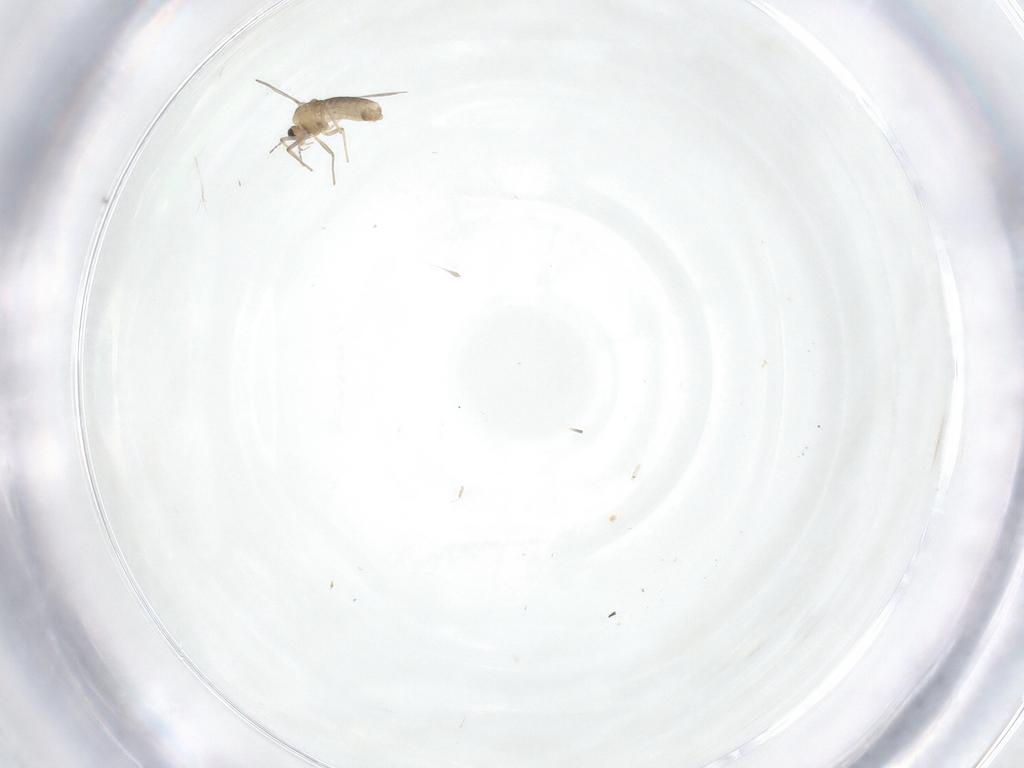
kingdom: Animalia
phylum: Arthropoda
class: Insecta
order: Diptera
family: Chironomidae
